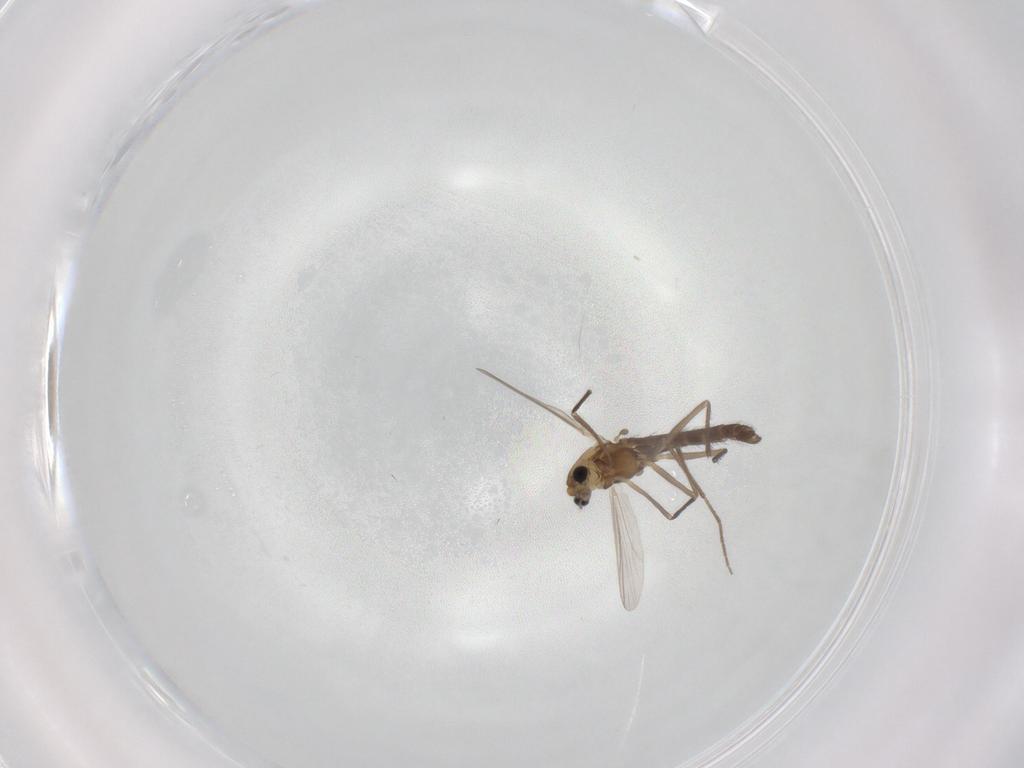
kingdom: Animalia
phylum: Arthropoda
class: Insecta
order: Diptera
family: Chironomidae
